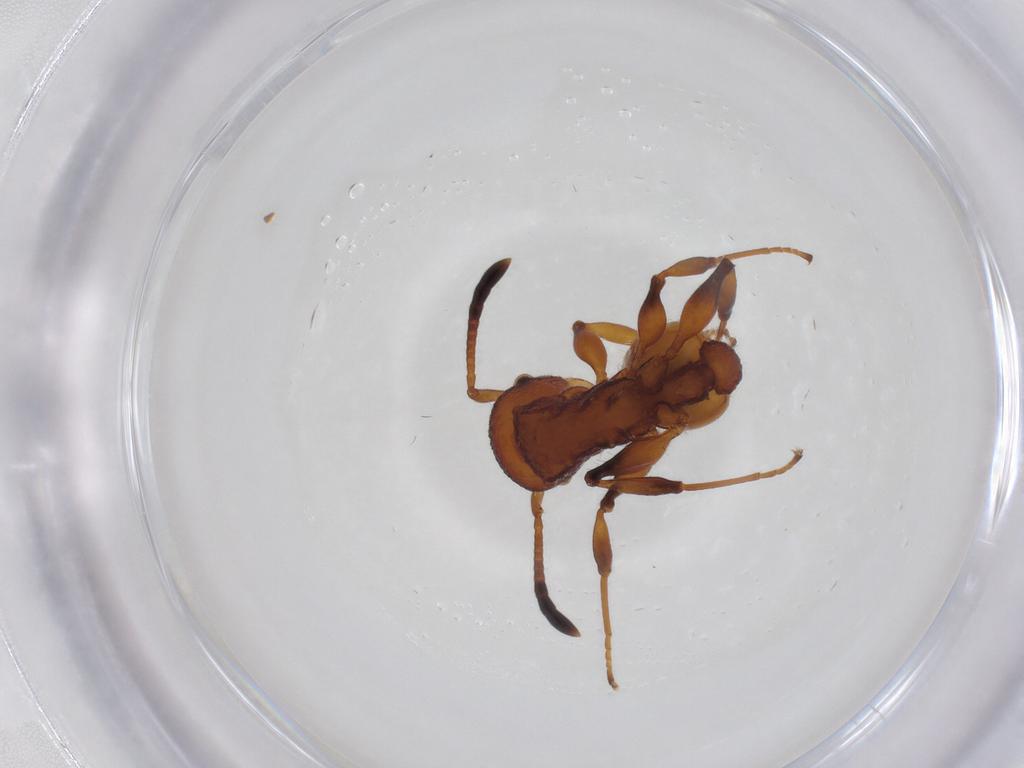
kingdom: Animalia
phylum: Arthropoda
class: Insecta
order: Hymenoptera
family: Formicidae
